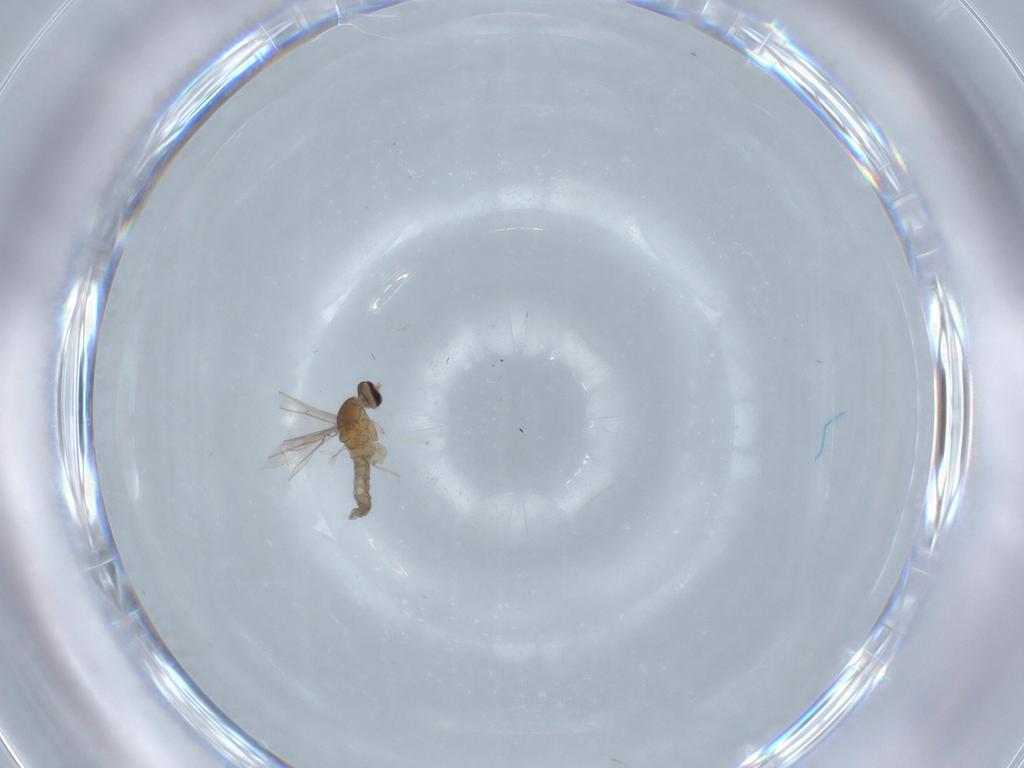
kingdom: Animalia
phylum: Arthropoda
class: Insecta
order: Diptera
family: Cecidomyiidae
